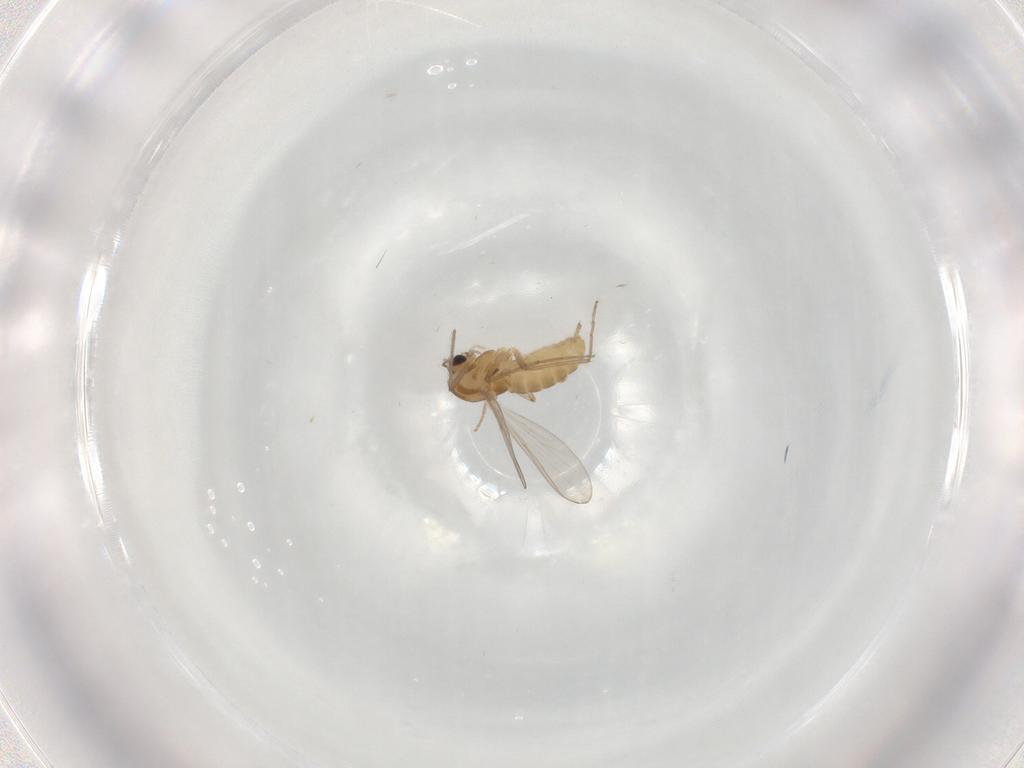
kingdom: Animalia
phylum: Arthropoda
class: Insecta
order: Diptera
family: Chironomidae
